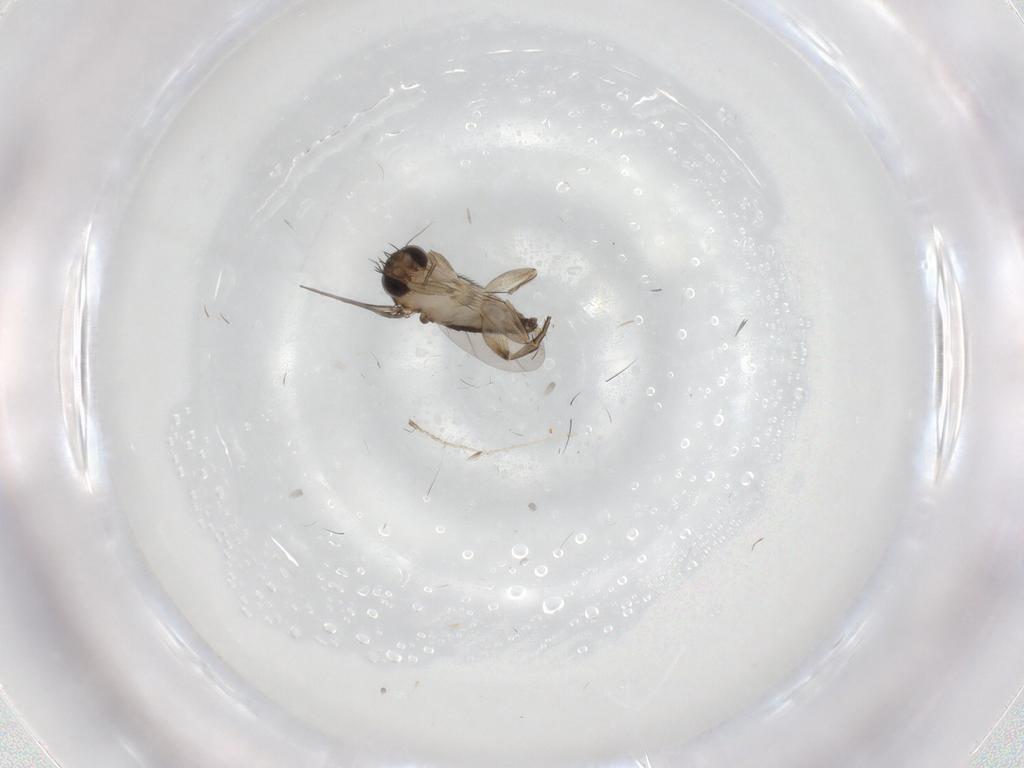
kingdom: Animalia
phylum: Arthropoda
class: Insecta
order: Diptera
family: Phoridae
